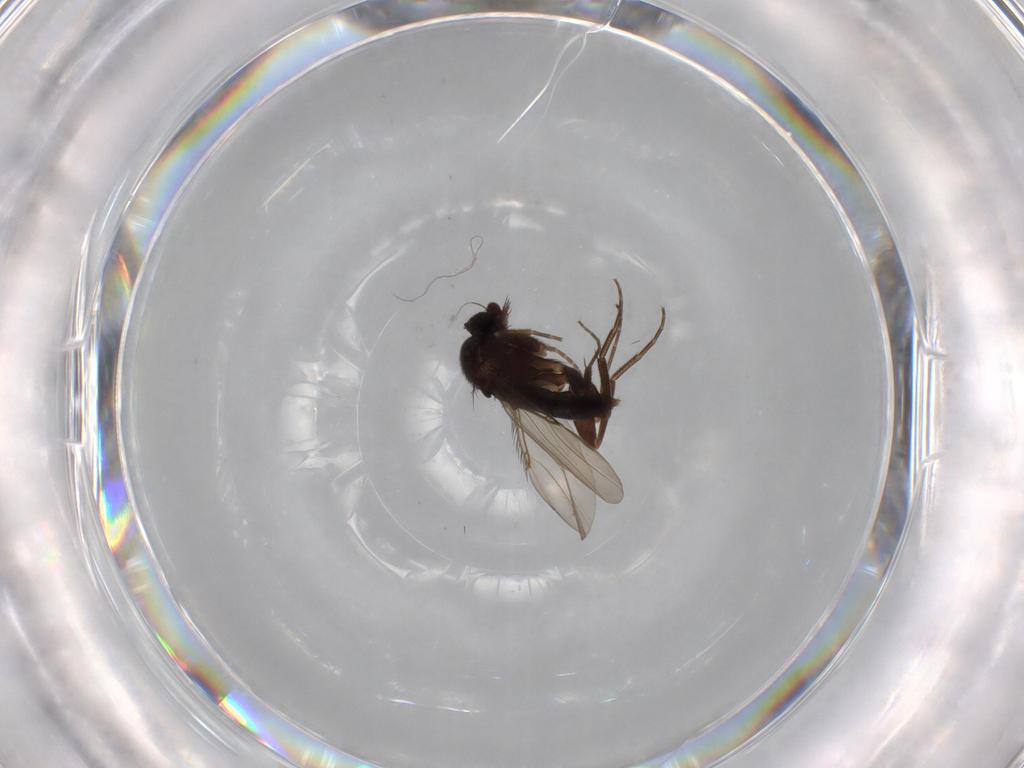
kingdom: Animalia
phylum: Arthropoda
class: Insecta
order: Diptera
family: Phoridae
